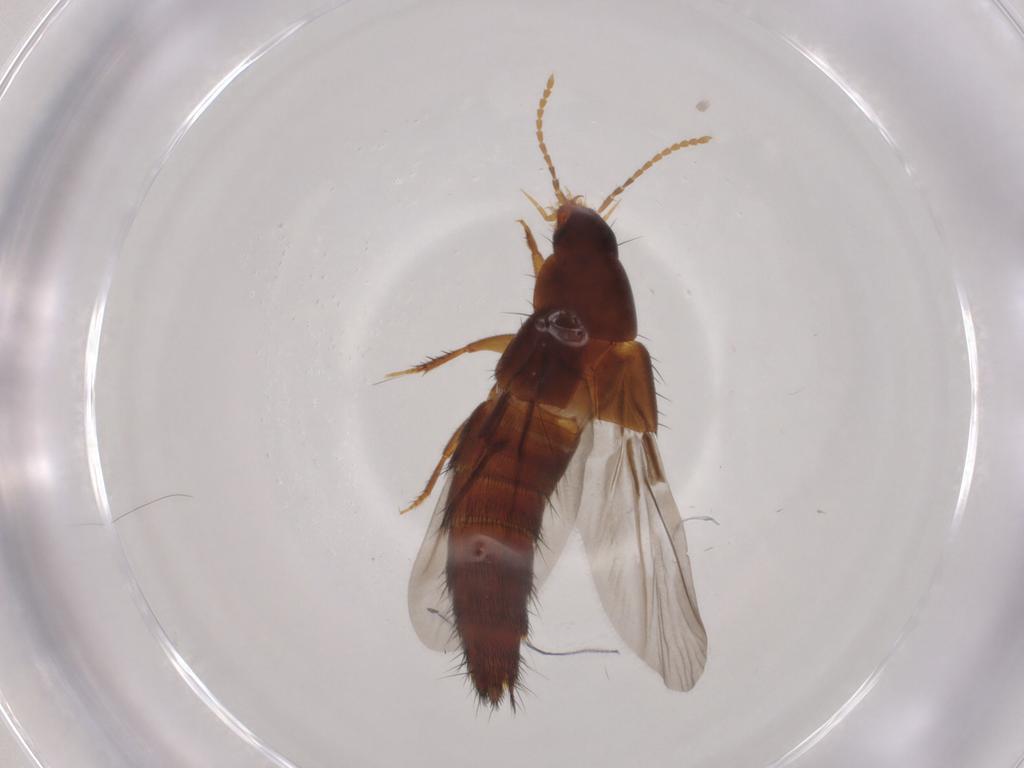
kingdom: Animalia
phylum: Arthropoda
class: Insecta
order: Coleoptera
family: Staphylinidae
